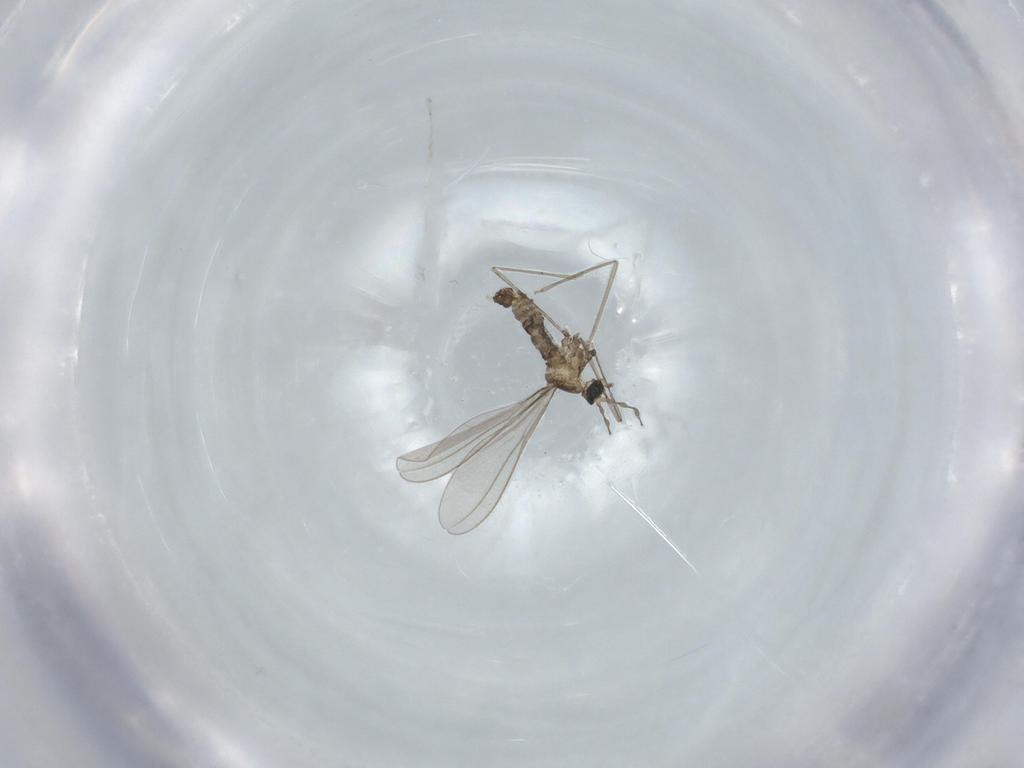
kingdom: Animalia
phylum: Arthropoda
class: Insecta
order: Diptera
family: Cecidomyiidae
